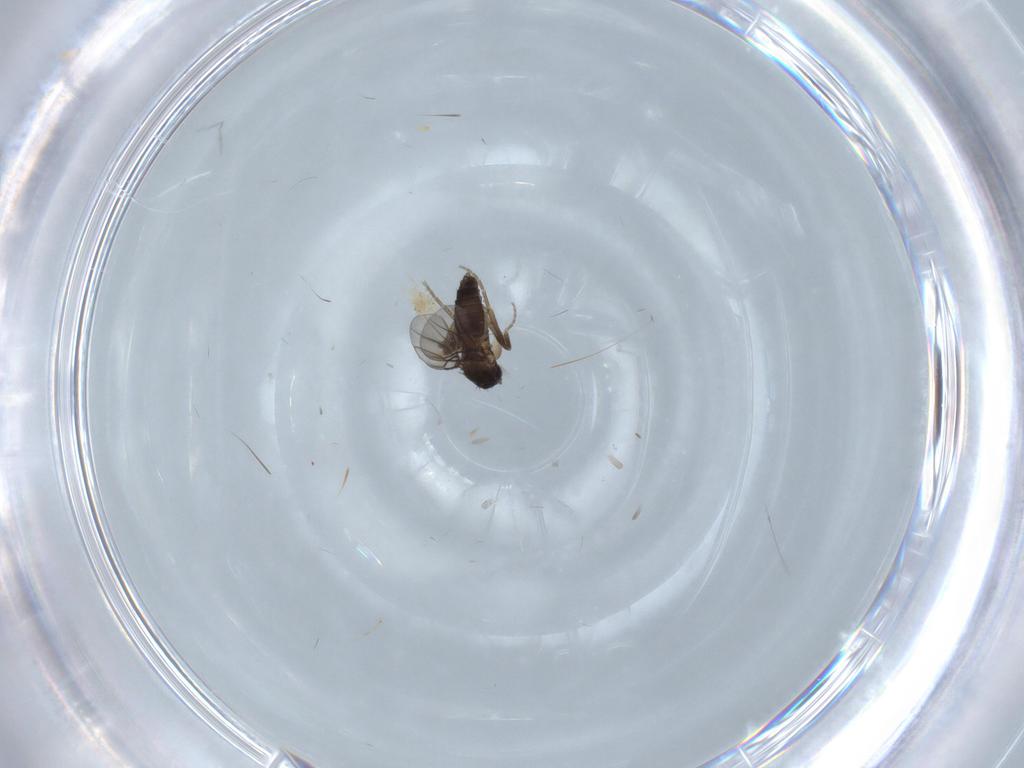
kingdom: Animalia
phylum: Arthropoda
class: Insecta
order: Diptera
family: Phoridae
